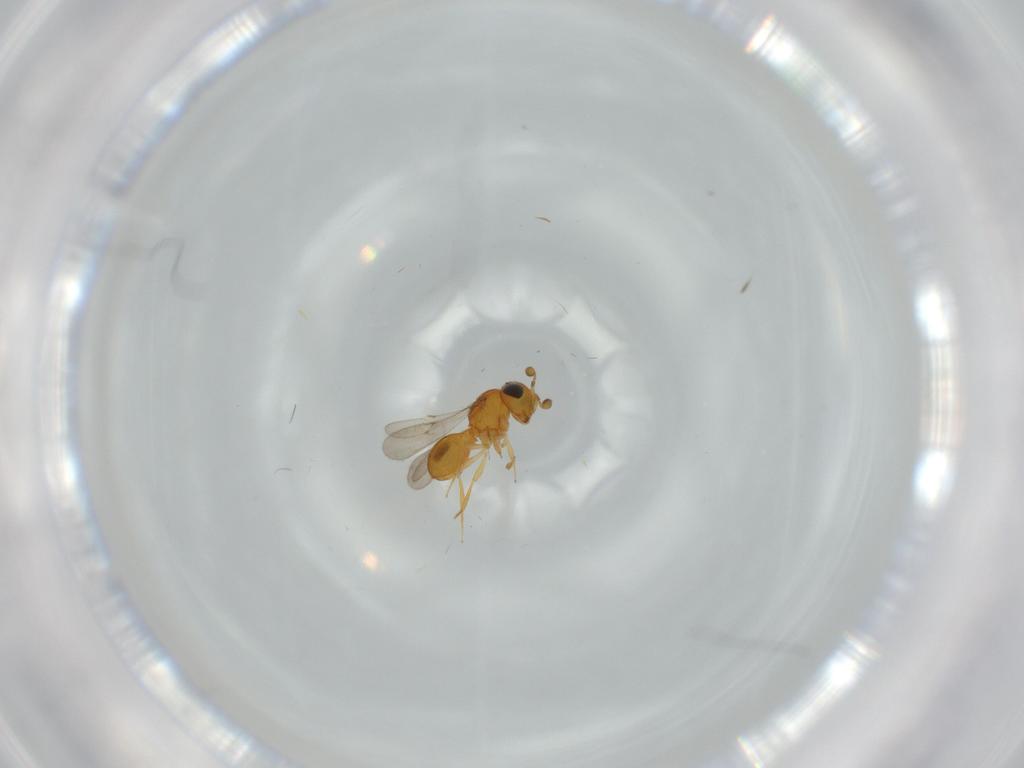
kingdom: Animalia
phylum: Arthropoda
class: Insecta
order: Hymenoptera
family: Scelionidae
